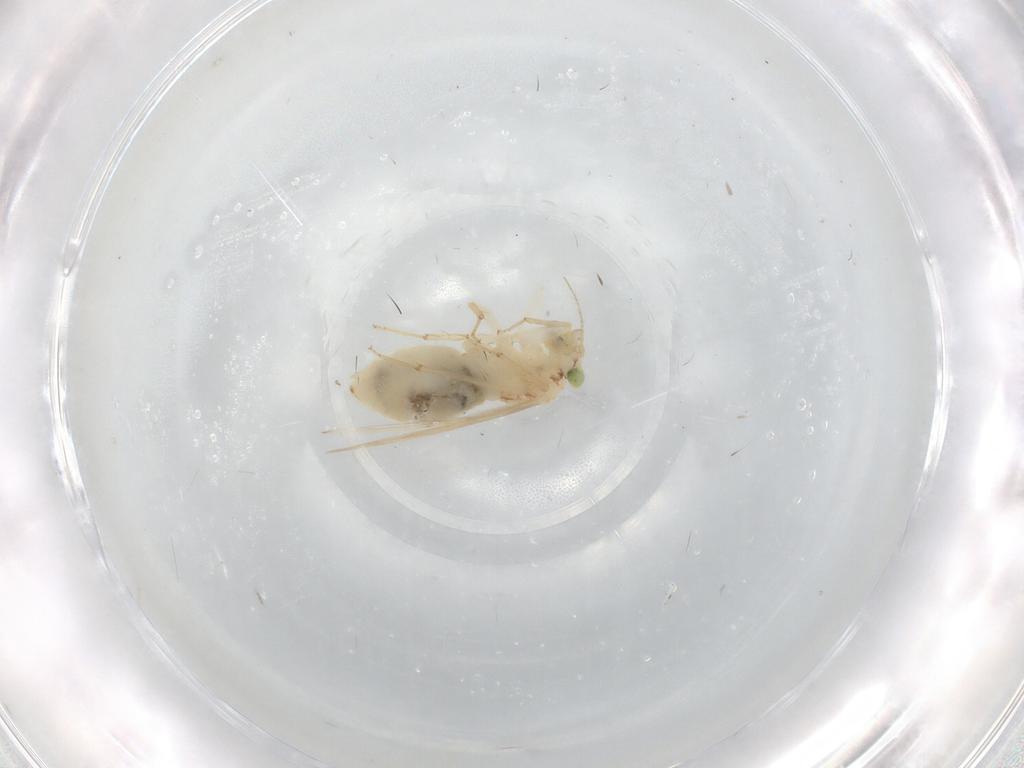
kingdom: Animalia
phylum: Arthropoda
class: Insecta
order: Psocodea
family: Lepidopsocidae
